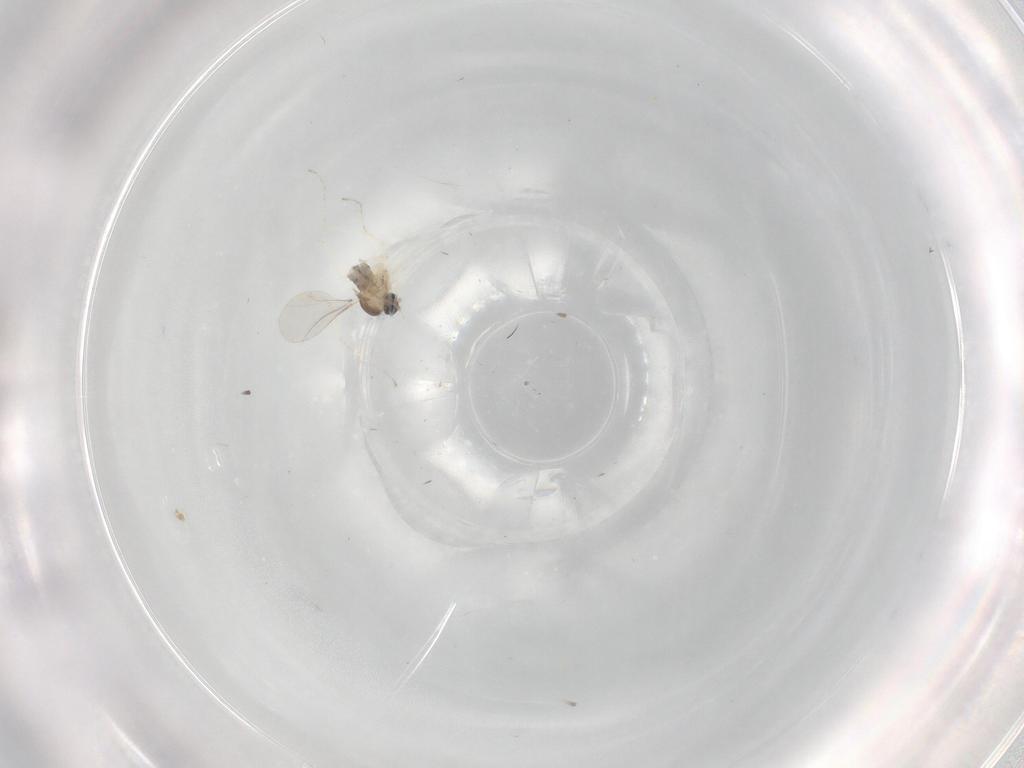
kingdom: Animalia
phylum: Arthropoda
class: Insecta
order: Diptera
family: Cecidomyiidae
